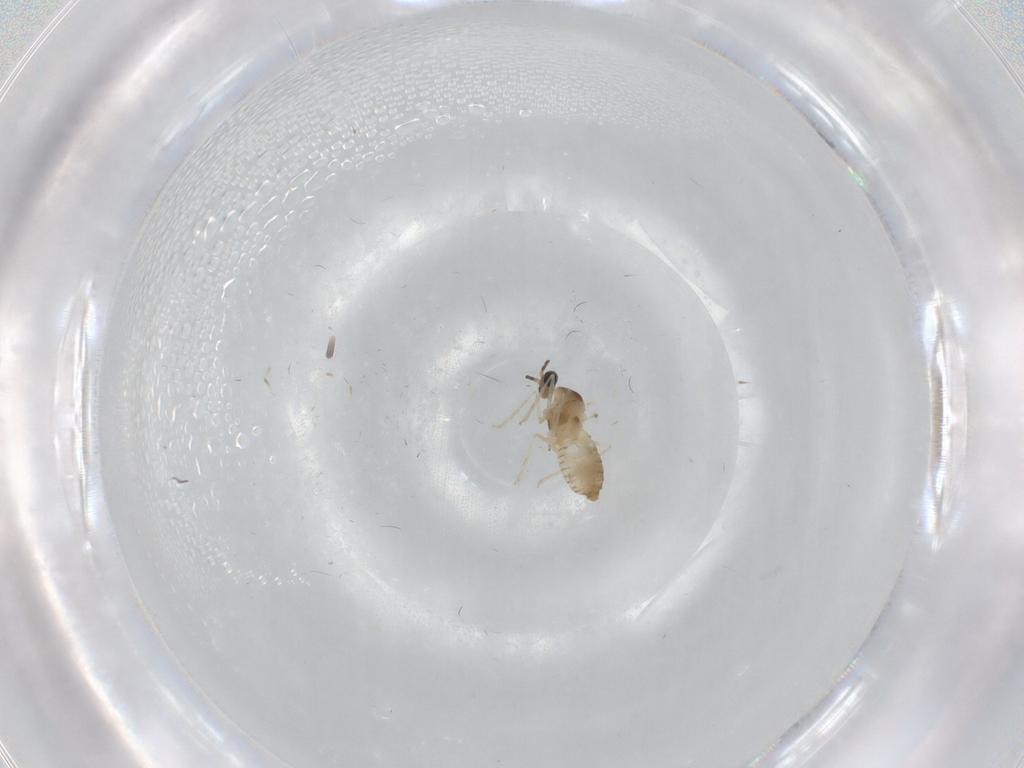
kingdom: Animalia
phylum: Arthropoda
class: Insecta
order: Diptera
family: Cecidomyiidae
